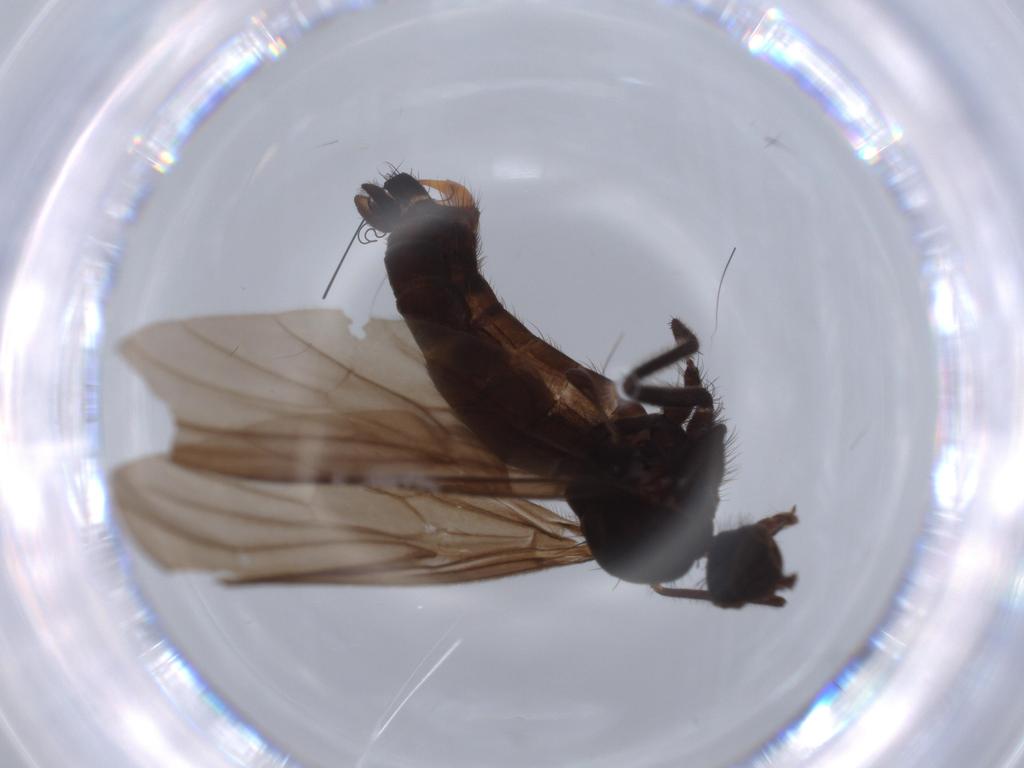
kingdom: Animalia
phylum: Arthropoda
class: Insecta
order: Diptera
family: Empididae
